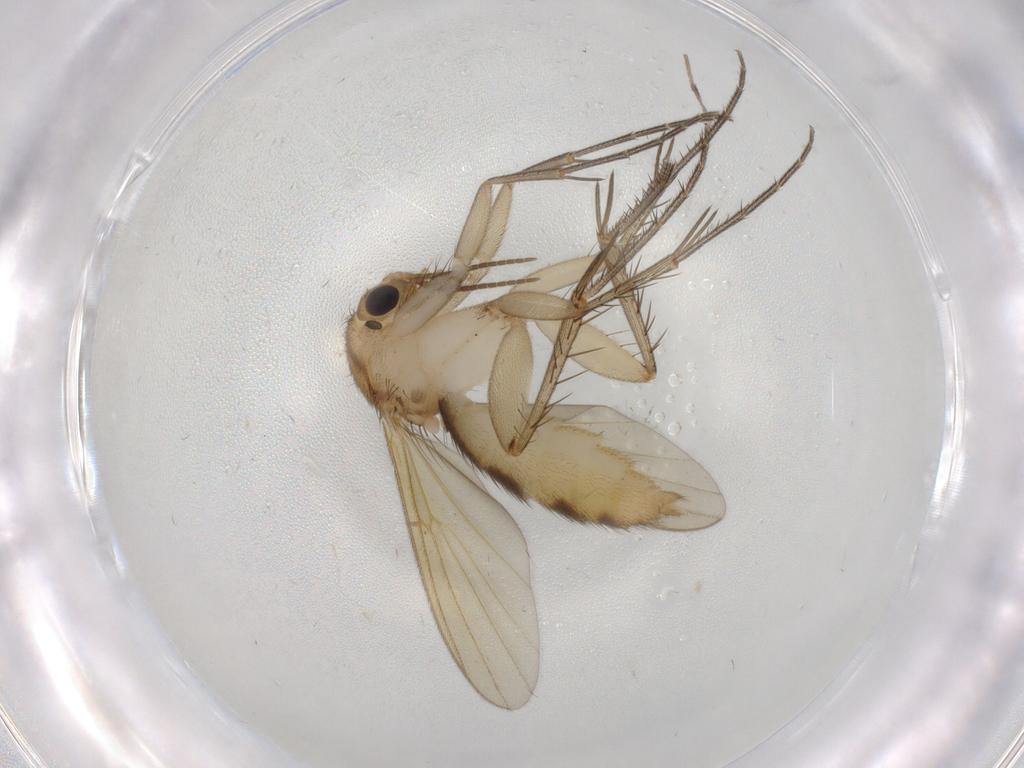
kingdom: Animalia
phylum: Arthropoda
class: Insecta
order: Diptera
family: Mycetophilidae
